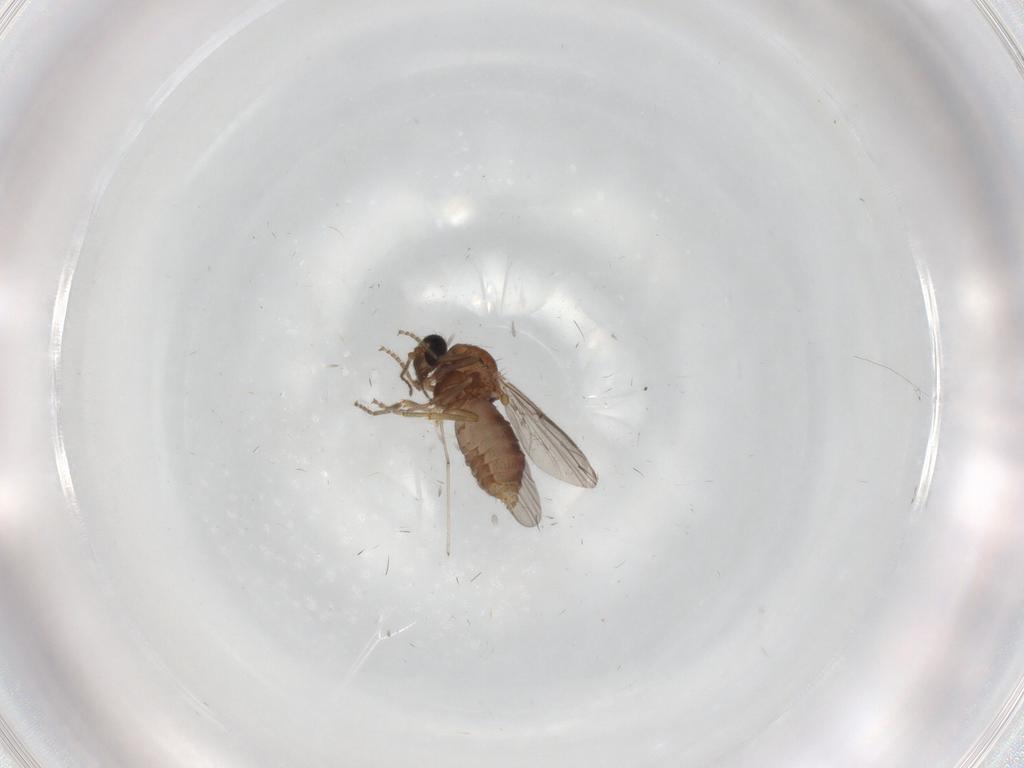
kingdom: Animalia
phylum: Arthropoda
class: Insecta
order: Diptera
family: Ceratopogonidae
